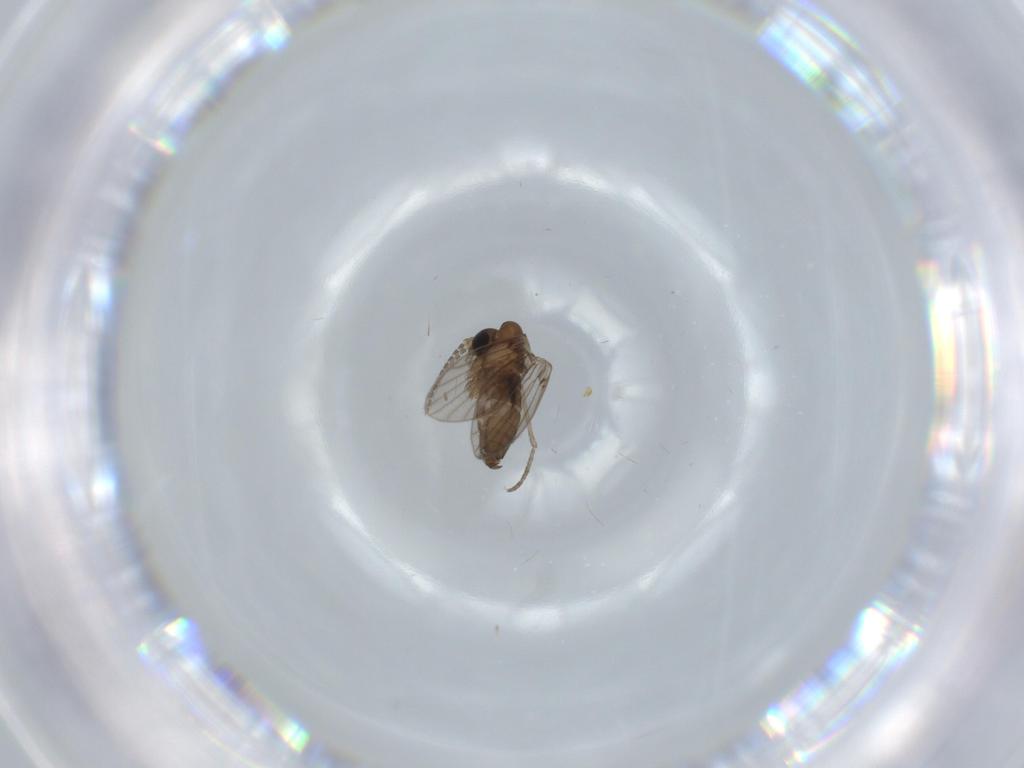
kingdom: Animalia
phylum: Arthropoda
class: Insecta
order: Diptera
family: Psychodidae
